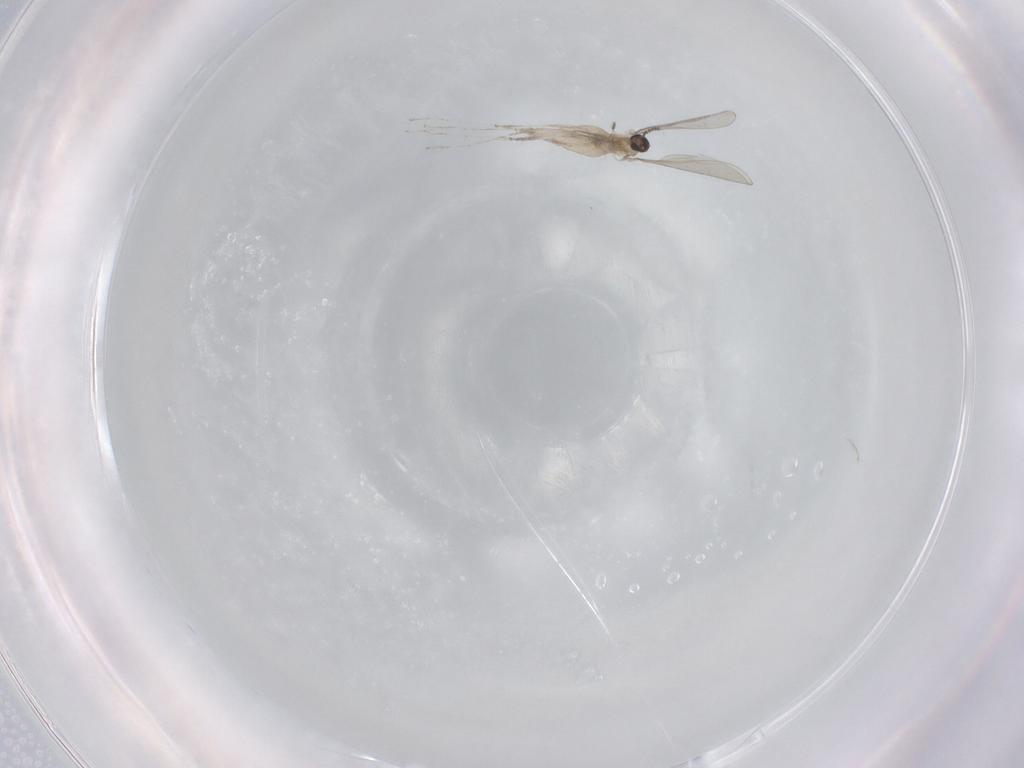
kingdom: Animalia
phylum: Arthropoda
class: Insecta
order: Diptera
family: Cecidomyiidae
